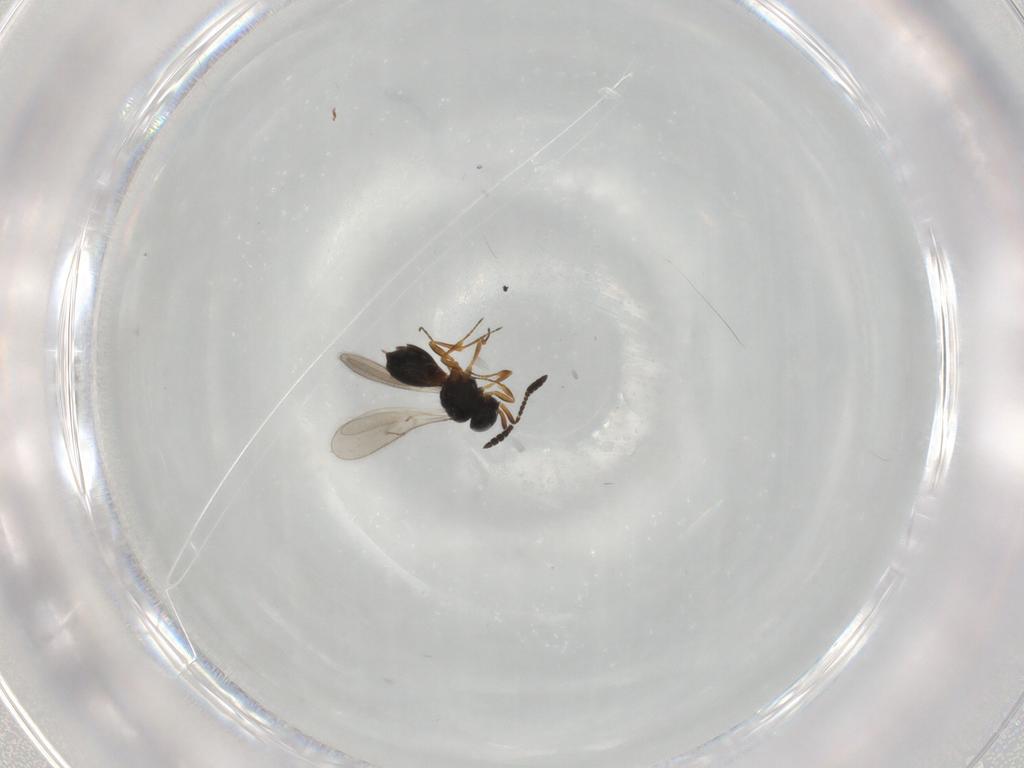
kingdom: Animalia
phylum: Arthropoda
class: Insecta
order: Hymenoptera
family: Scelionidae
